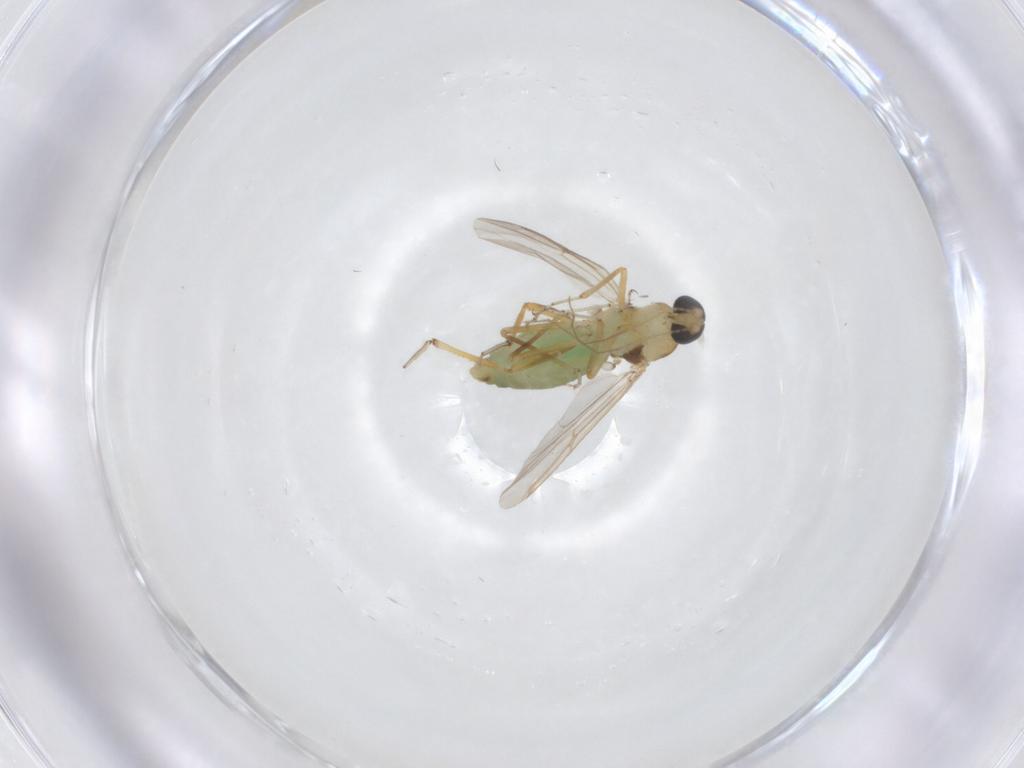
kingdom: Animalia
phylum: Arthropoda
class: Insecta
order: Diptera
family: Ceratopogonidae
